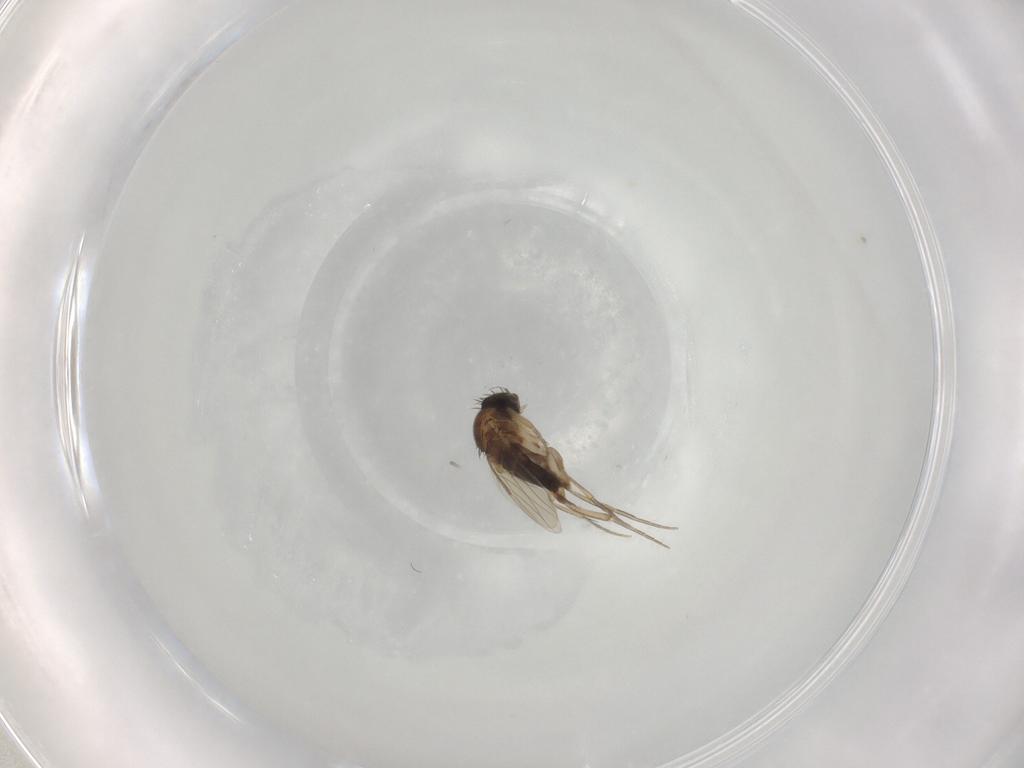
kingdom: Animalia
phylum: Arthropoda
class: Insecta
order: Diptera
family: Phoridae
